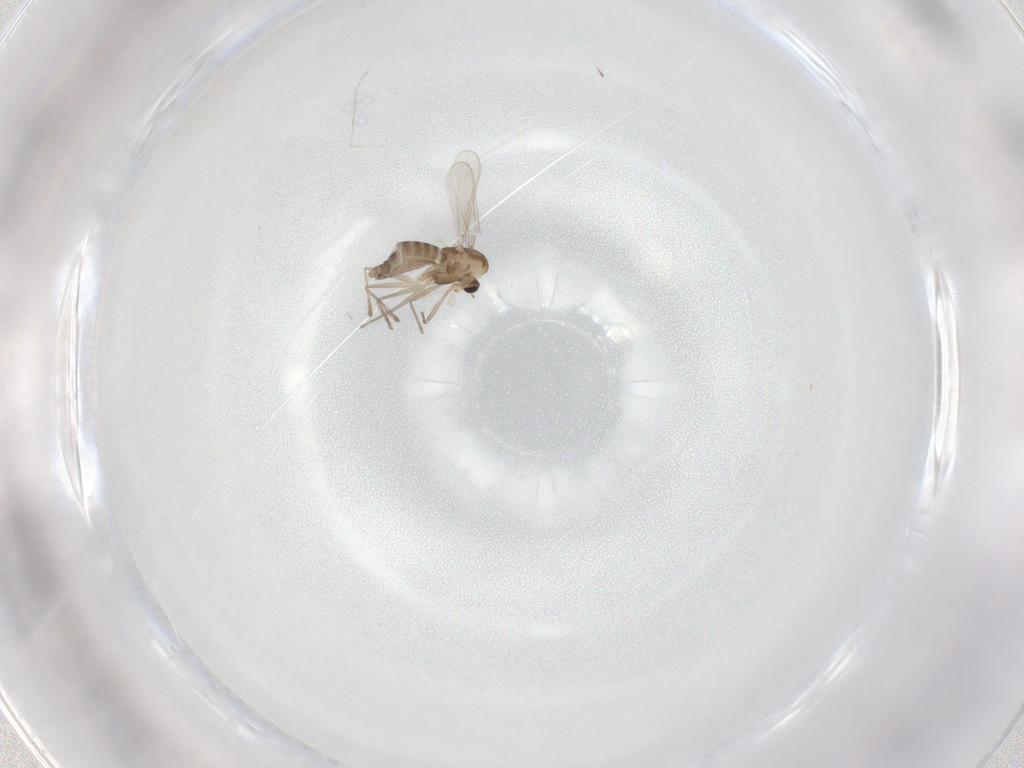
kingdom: Animalia
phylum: Arthropoda
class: Insecta
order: Diptera
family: Chironomidae
